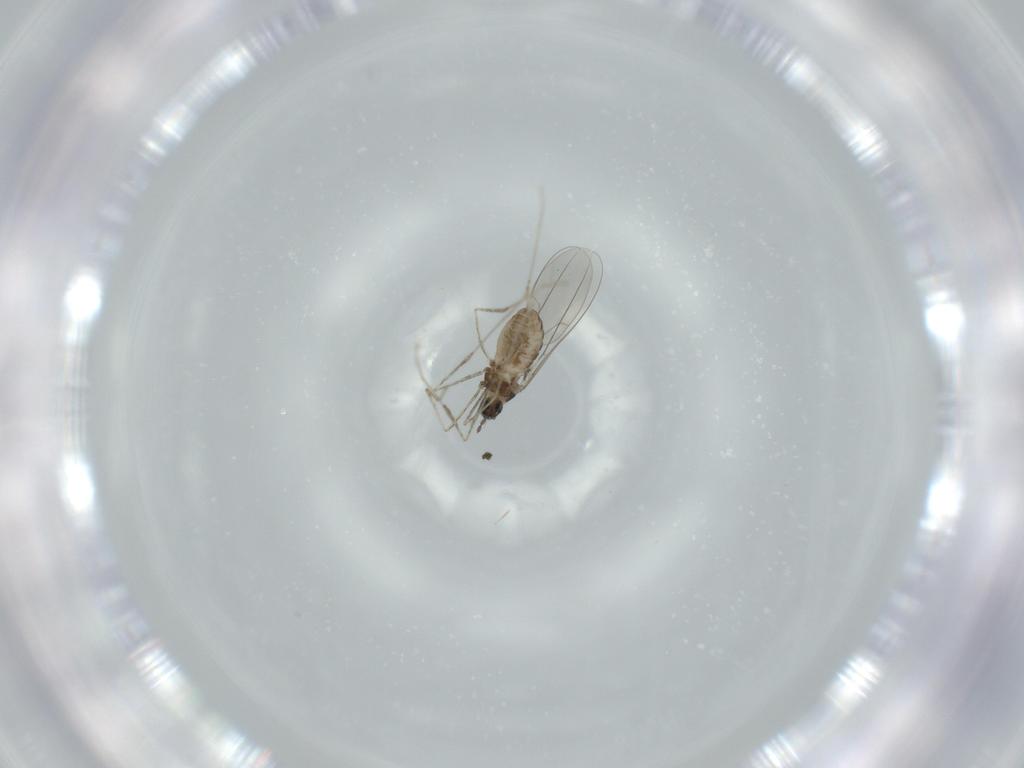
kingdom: Animalia
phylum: Arthropoda
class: Insecta
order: Diptera
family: Cecidomyiidae
